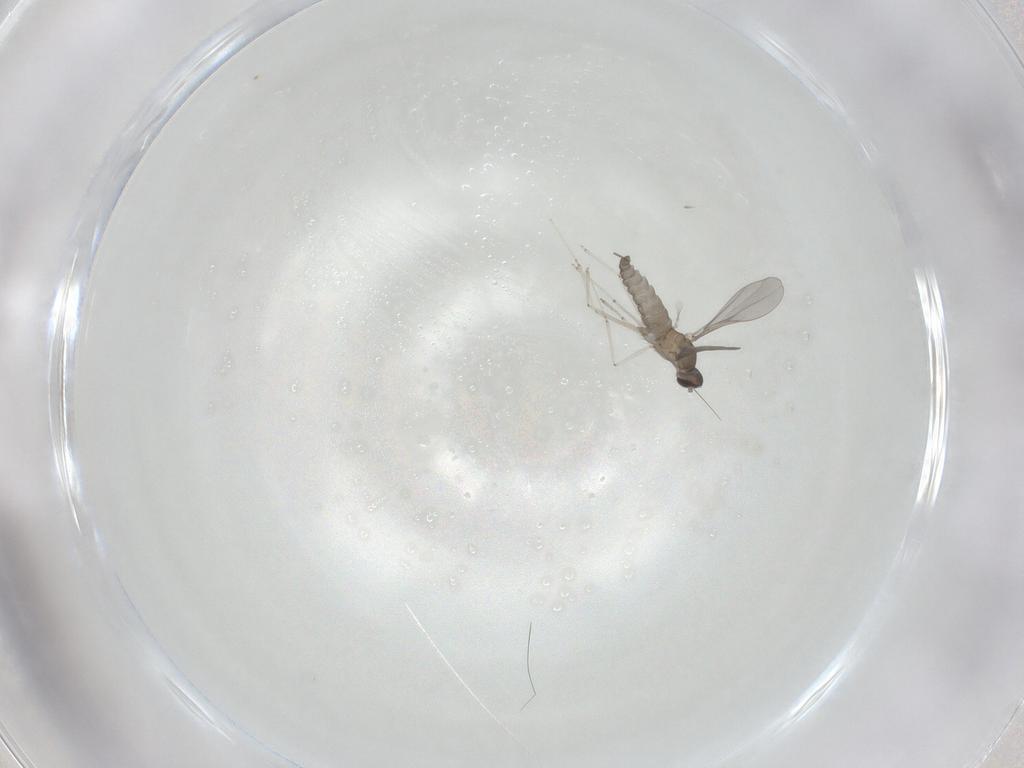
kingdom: Animalia
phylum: Arthropoda
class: Insecta
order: Diptera
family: Cecidomyiidae
